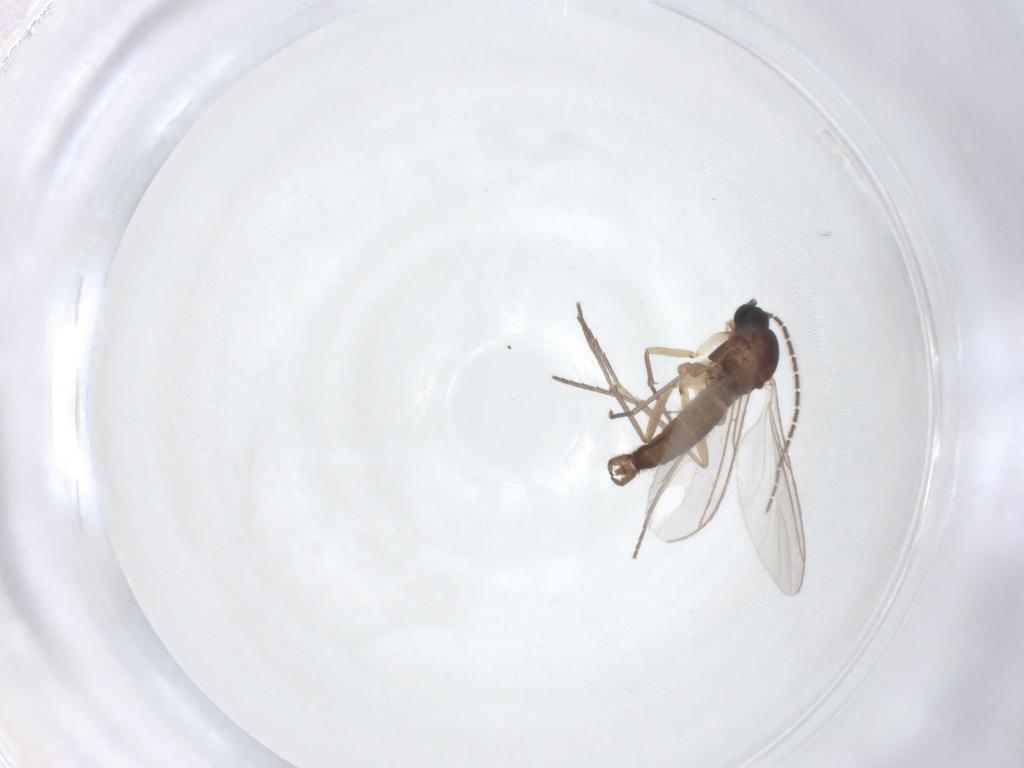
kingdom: Animalia
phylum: Arthropoda
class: Insecta
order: Diptera
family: Sciaridae
